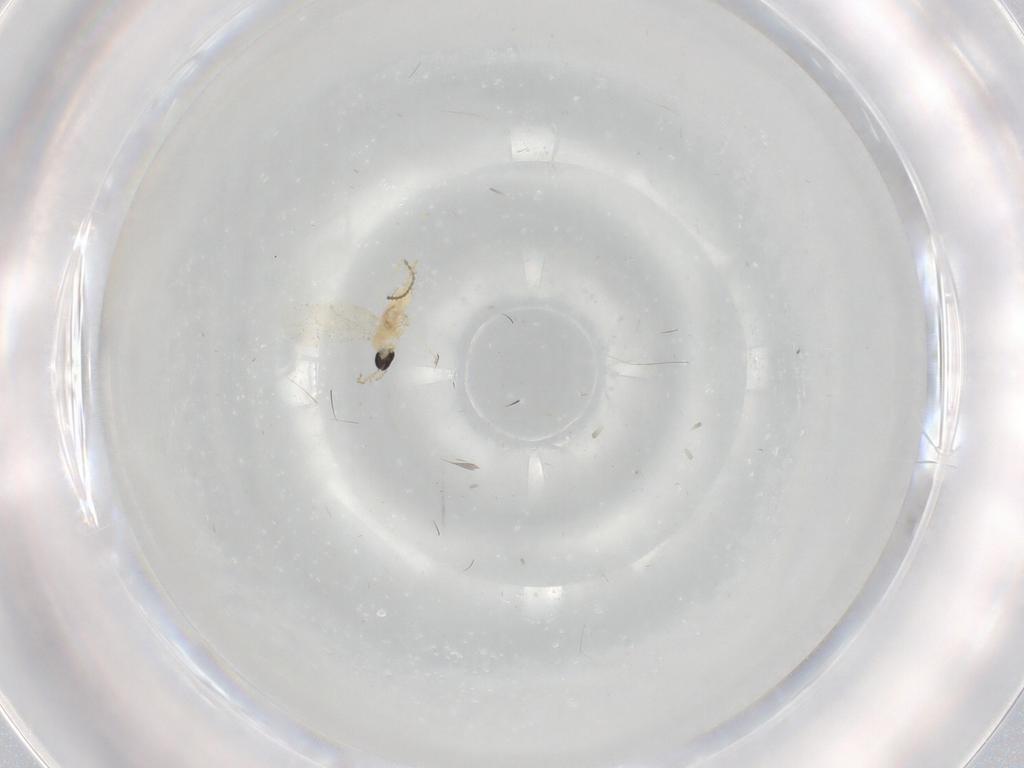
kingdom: Animalia
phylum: Arthropoda
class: Insecta
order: Diptera
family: Cecidomyiidae
